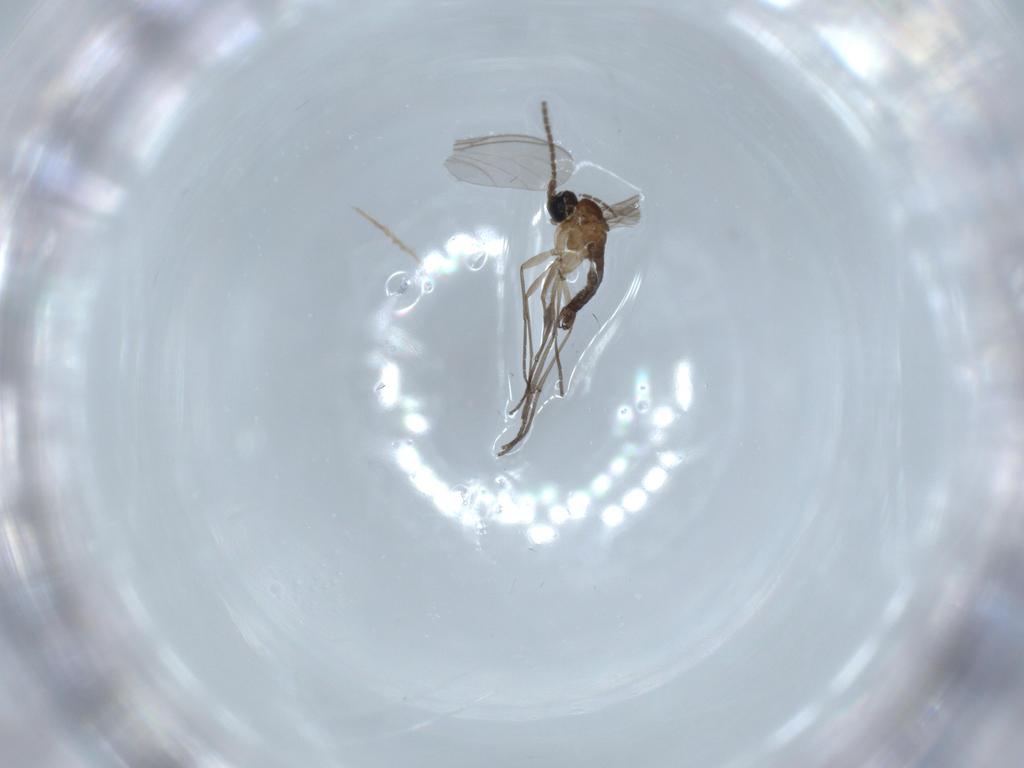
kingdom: Animalia
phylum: Arthropoda
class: Insecta
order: Diptera
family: Sciaridae
